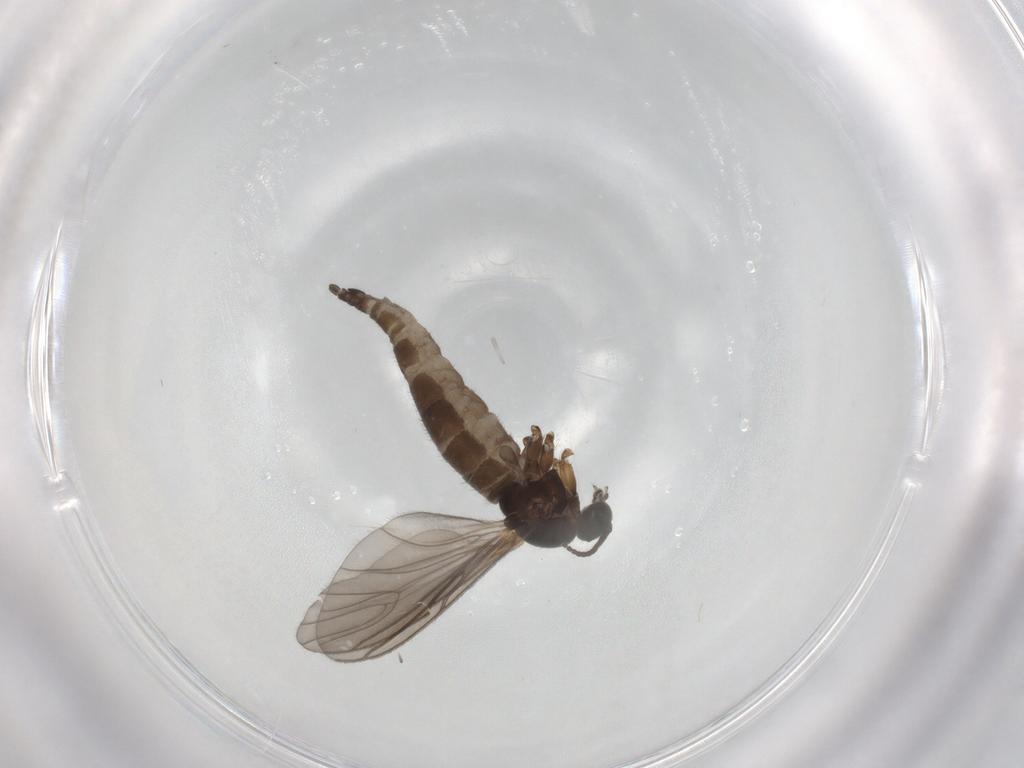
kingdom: Animalia
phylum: Arthropoda
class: Insecta
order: Diptera
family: Sciaridae
